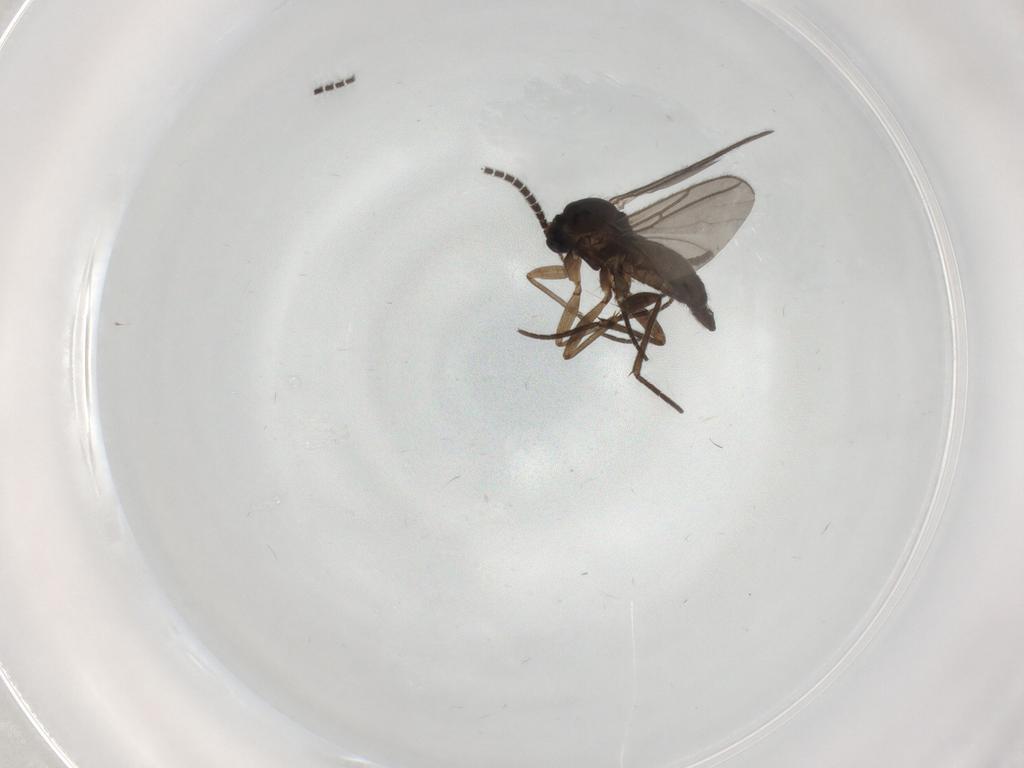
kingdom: Animalia
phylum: Arthropoda
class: Insecta
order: Diptera
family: Psychodidae
